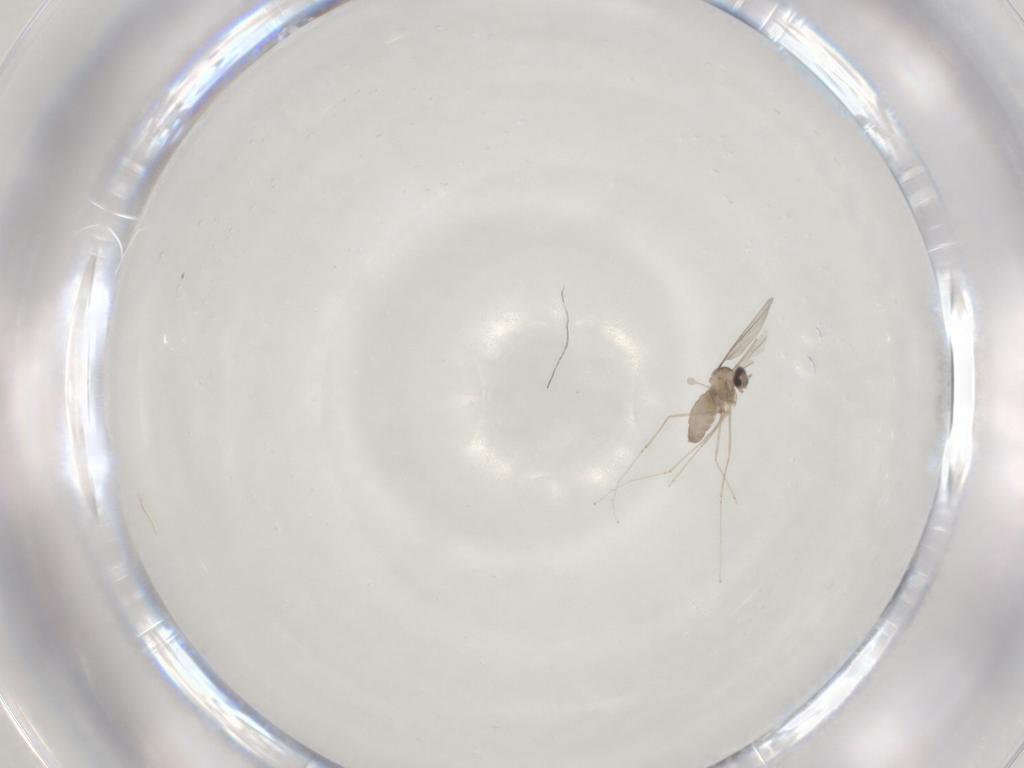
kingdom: Animalia
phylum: Arthropoda
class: Insecta
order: Diptera
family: Cecidomyiidae
